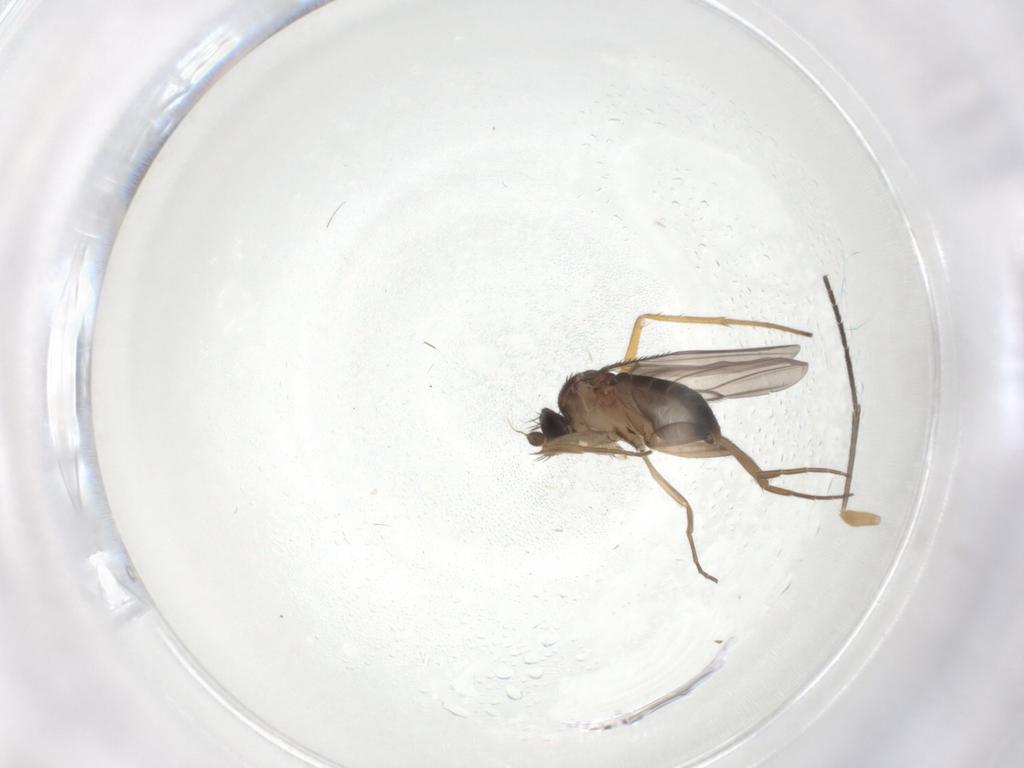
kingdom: Animalia
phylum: Arthropoda
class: Insecta
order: Diptera
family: Phoridae
